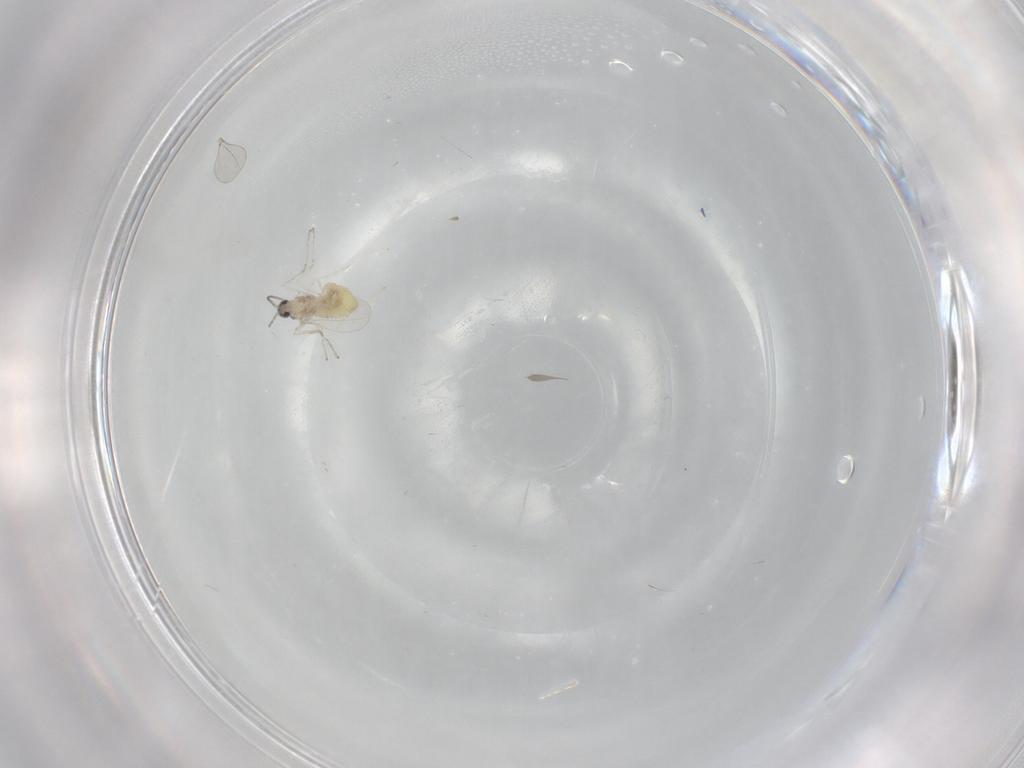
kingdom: Animalia
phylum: Arthropoda
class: Insecta
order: Diptera
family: Cecidomyiidae
